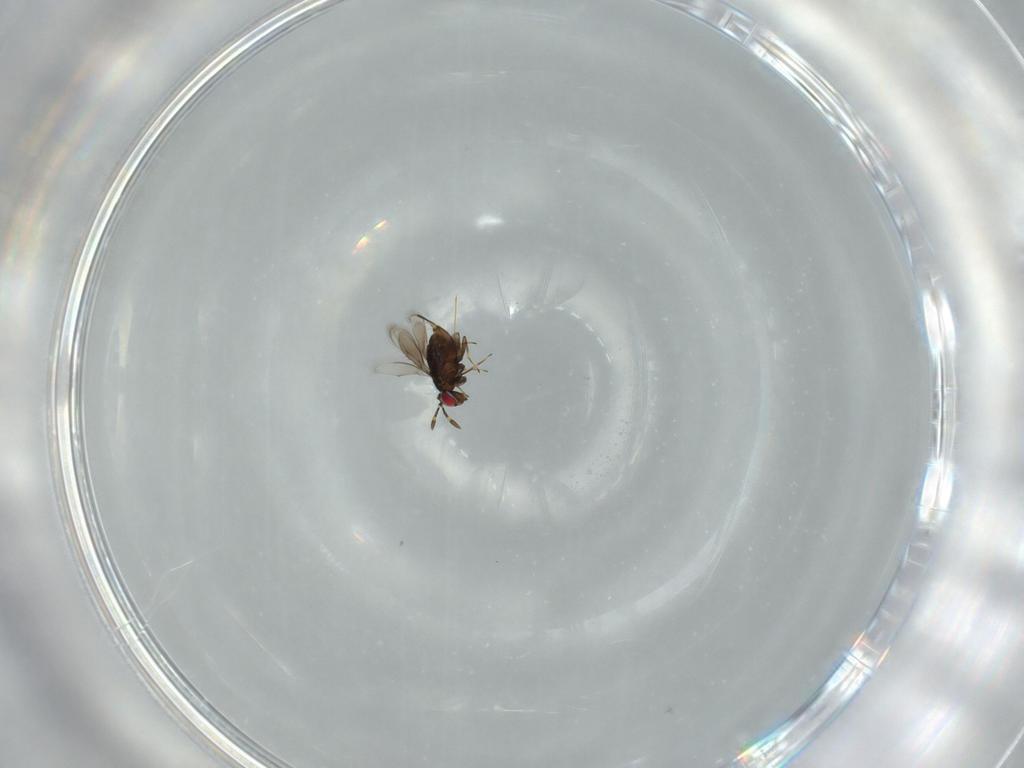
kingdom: Animalia
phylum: Arthropoda
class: Insecta
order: Hymenoptera
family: Azotidae
